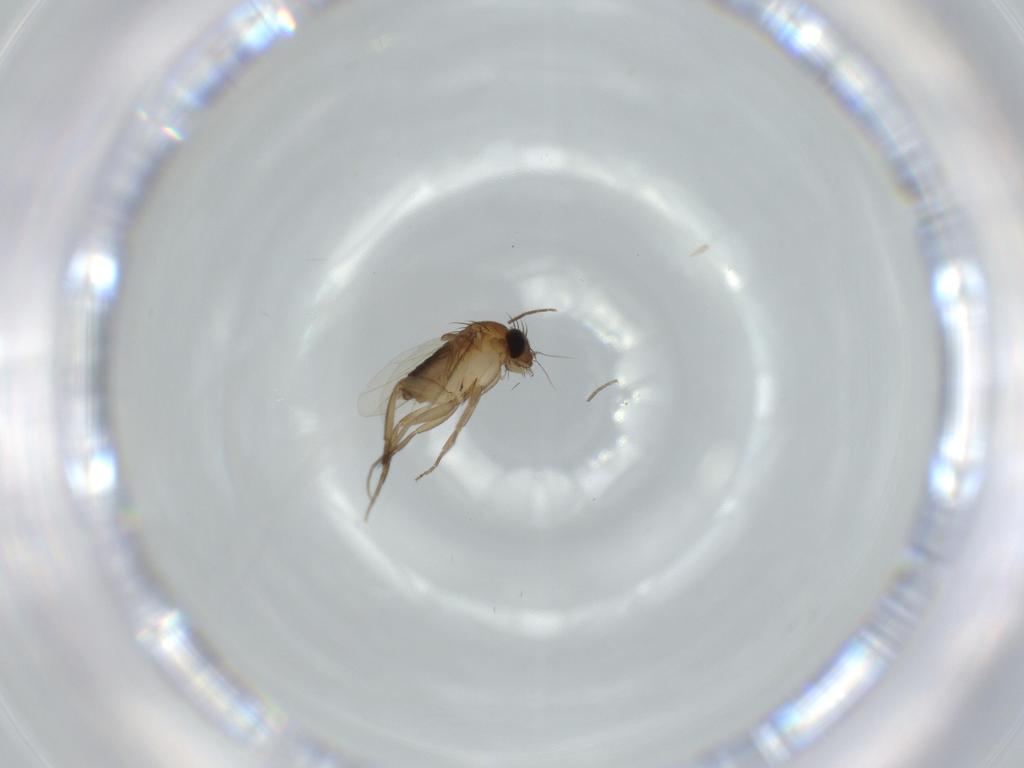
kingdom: Animalia
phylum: Arthropoda
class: Insecta
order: Diptera
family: Phoridae
